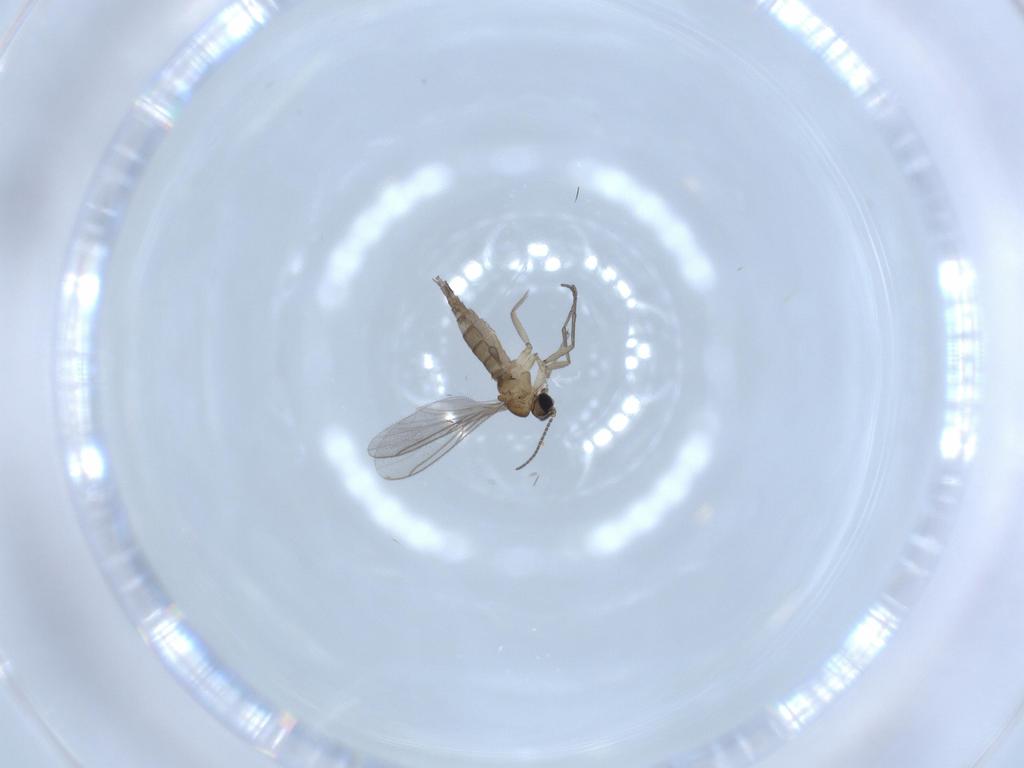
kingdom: Animalia
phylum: Arthropoda
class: Insecta
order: Diptera
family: Sciaridae
